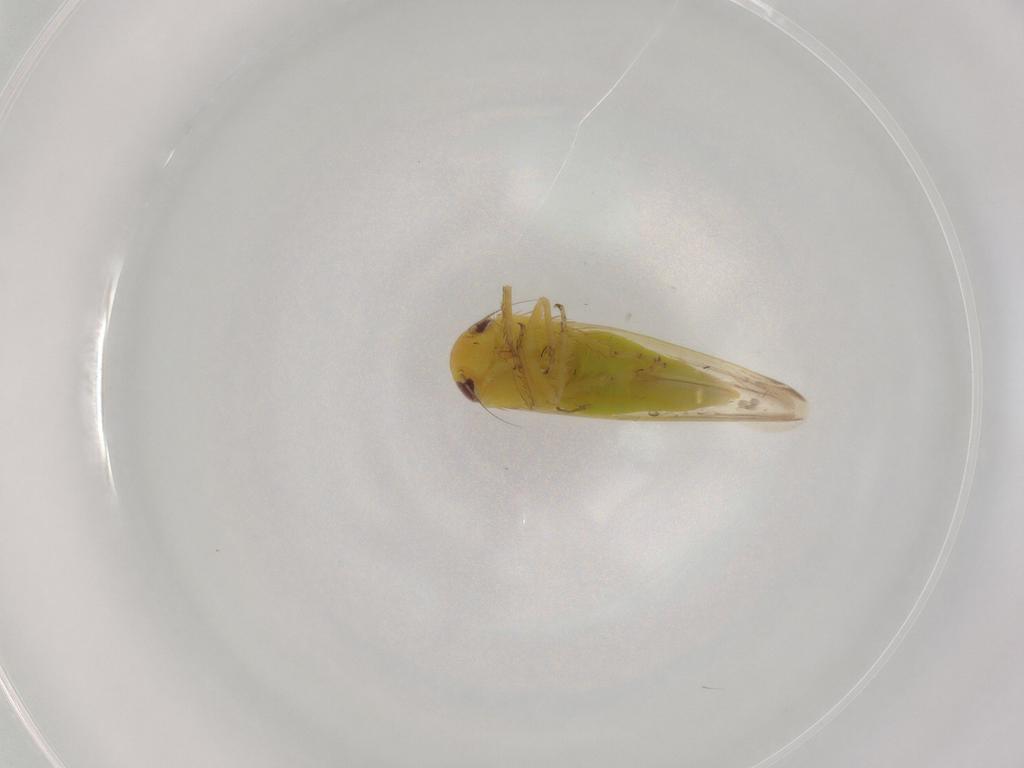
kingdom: Animalia
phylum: Arthropoda
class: Insecta
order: Hemiptera
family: Cicadellidae
